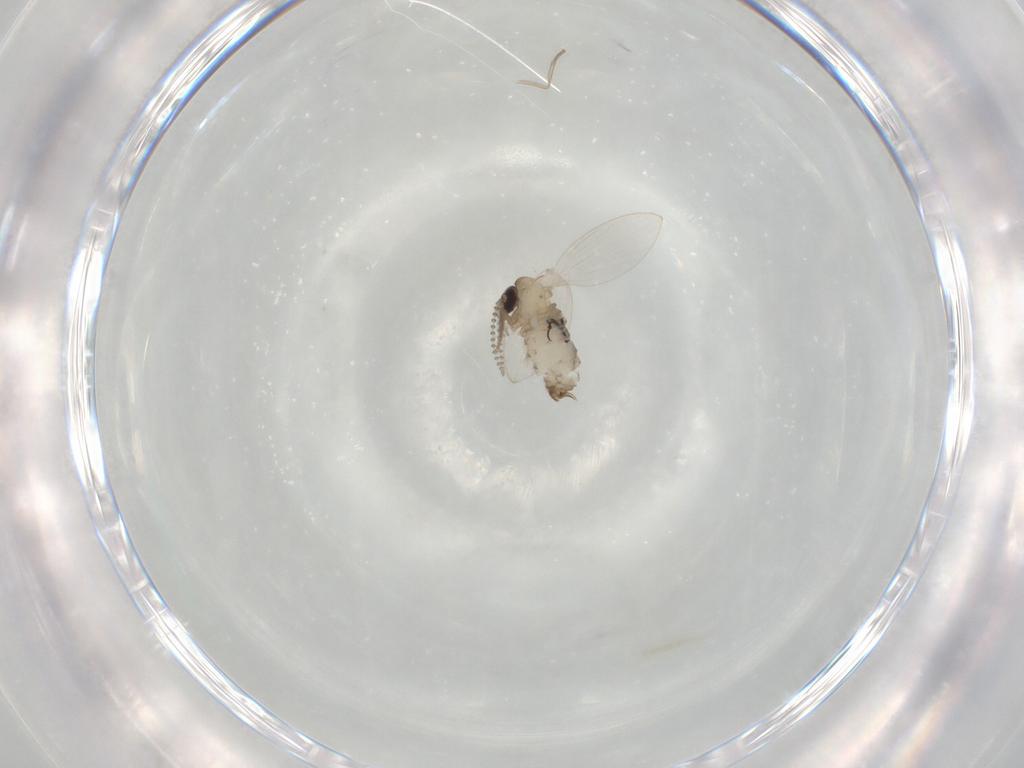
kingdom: Animalia
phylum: Arthropoda
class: Insecta
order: Diptera
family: Psychodidae
